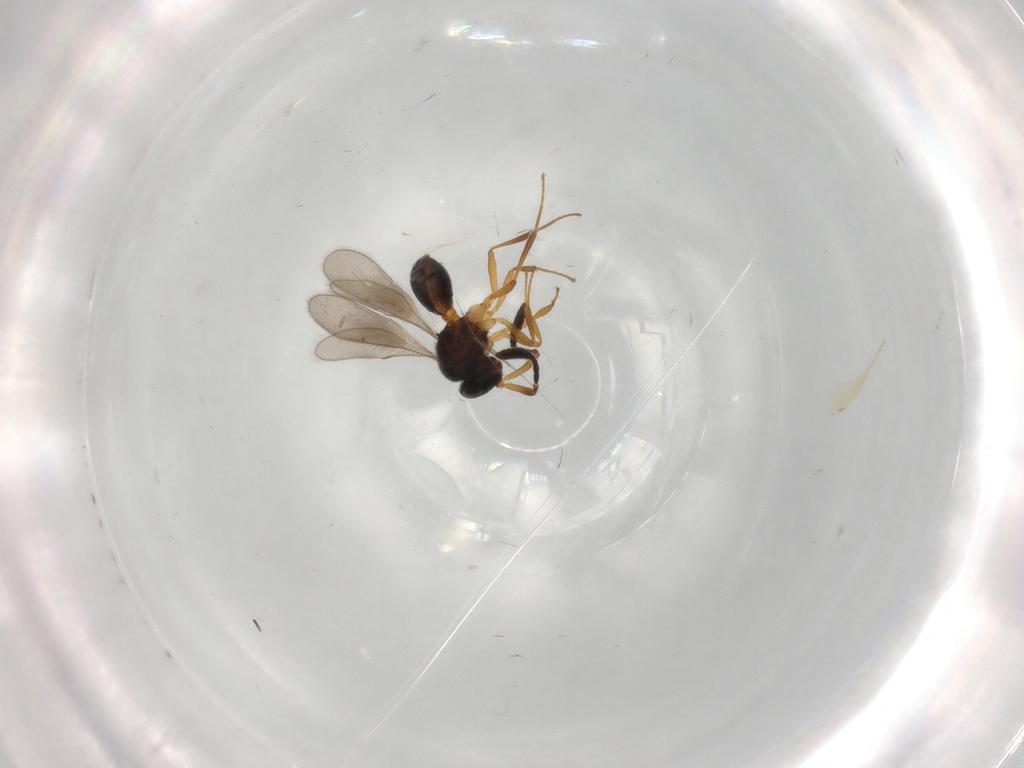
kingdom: Animalia
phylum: Arthropoda
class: Insecta
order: Hymenoptera
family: Scelionidae
